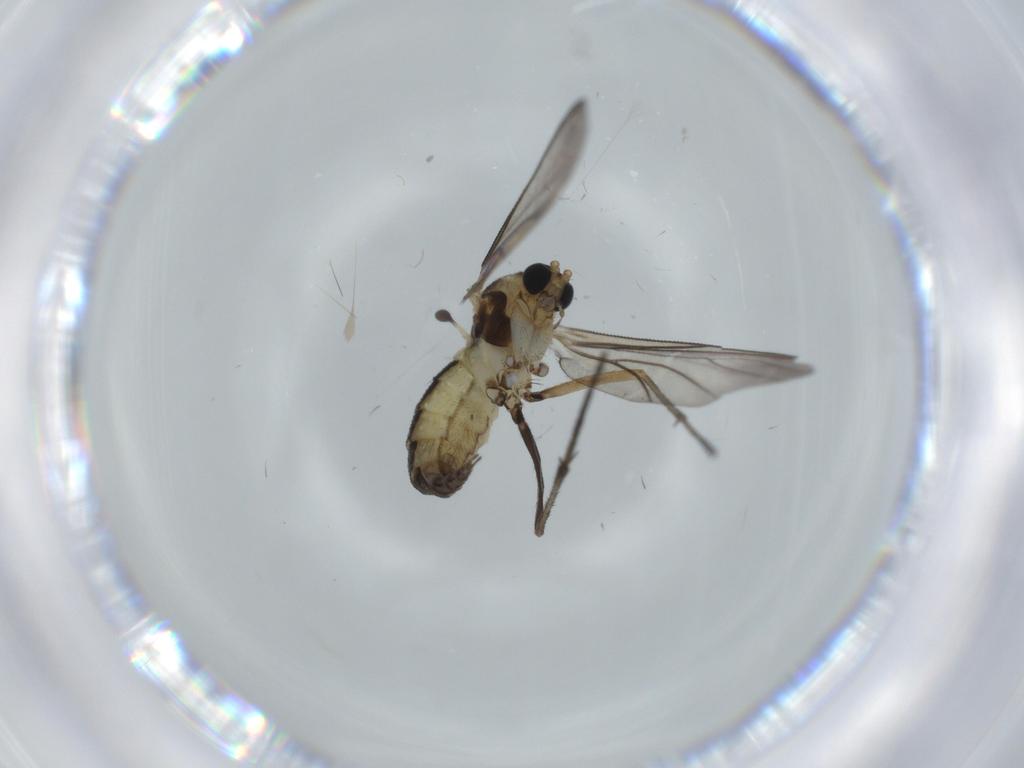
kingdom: Animalia
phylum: Arthropoda
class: Insecta
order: Diptera
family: Sciaridae
